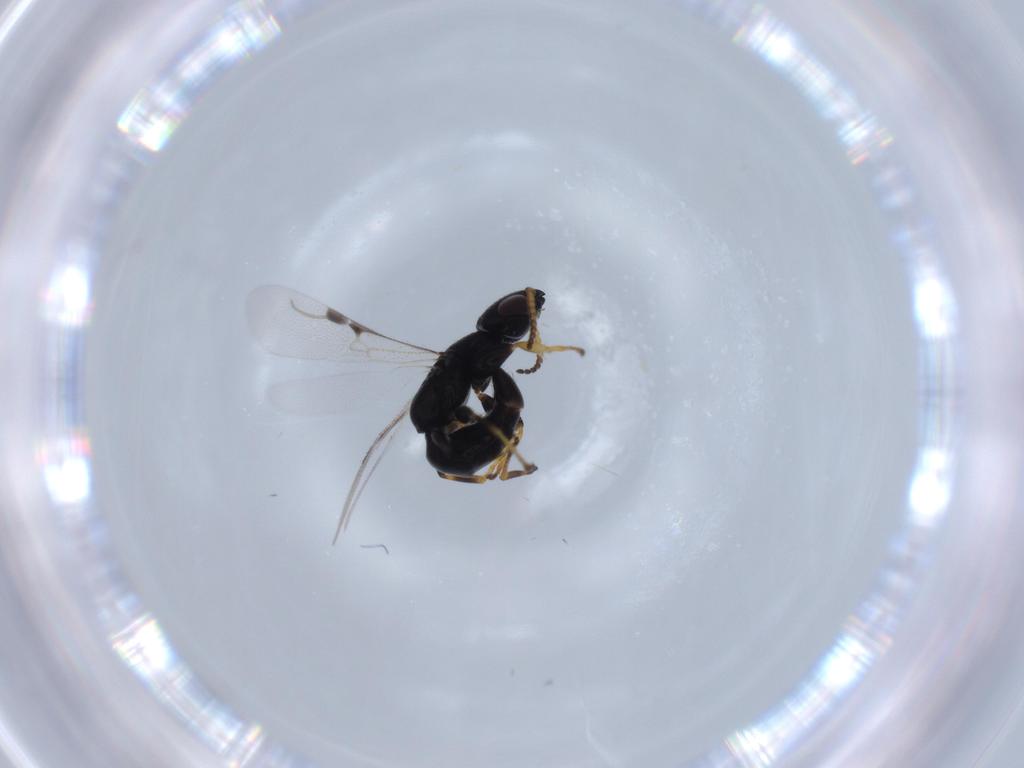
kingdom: Animalia
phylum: Arthropoda
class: Insecta
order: Hymenoptera
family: Bethylidae
